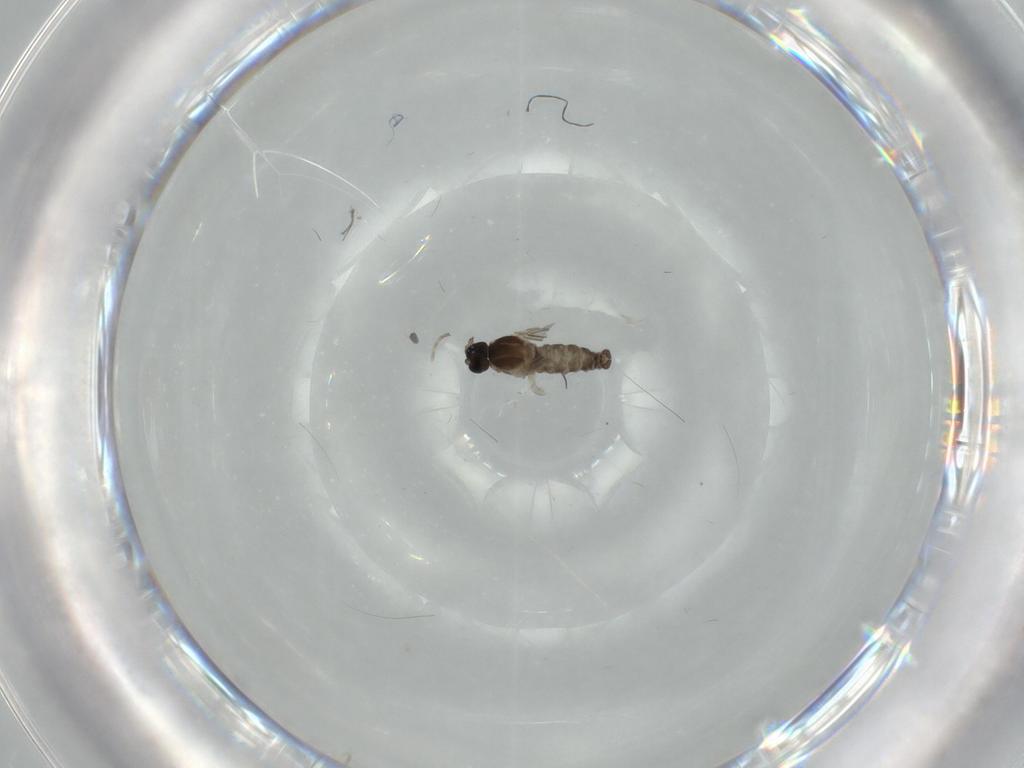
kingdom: Animalia
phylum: Arthropoda
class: Insecta
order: Diptera
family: Cecidomyiidae
